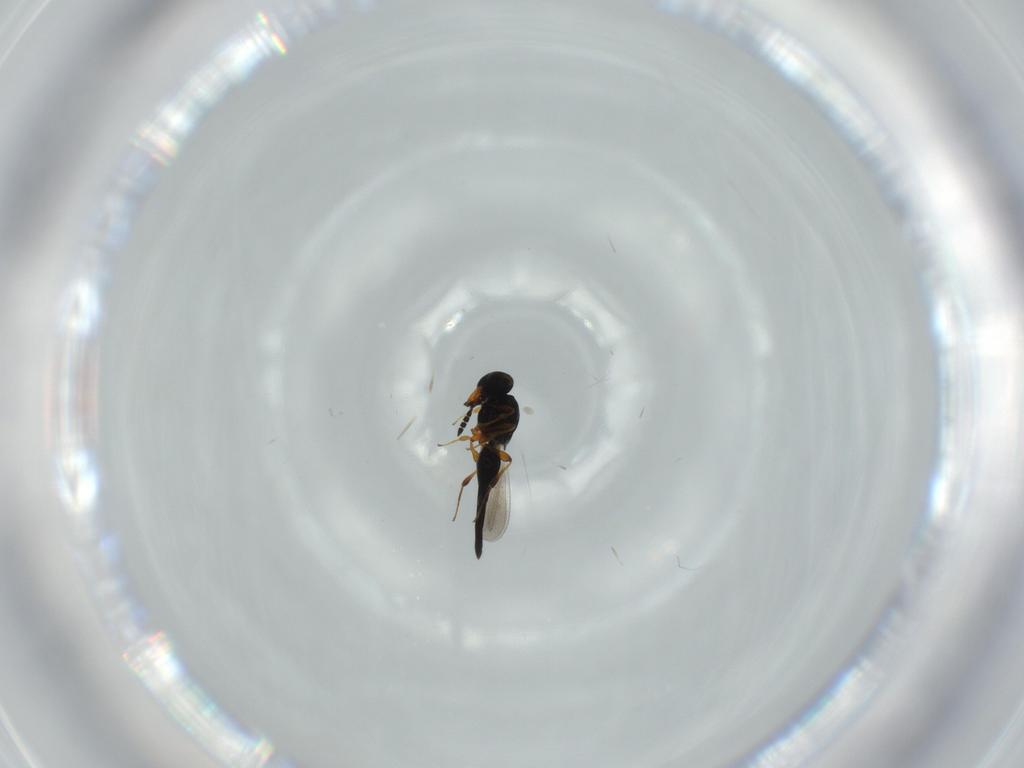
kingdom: Animalia
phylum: Arthropoda
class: Insecta
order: Hymenoptera
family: Platygastridae
